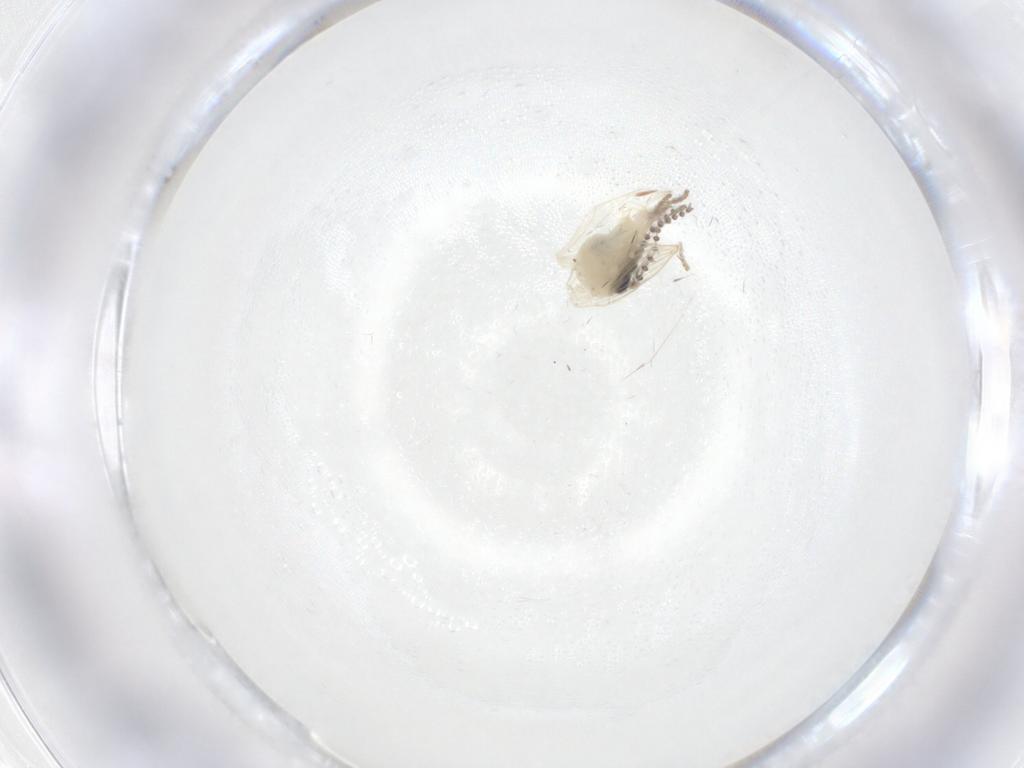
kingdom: Animalia
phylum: Arthropoda
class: Insecta
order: Diptera
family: Psychodidae
